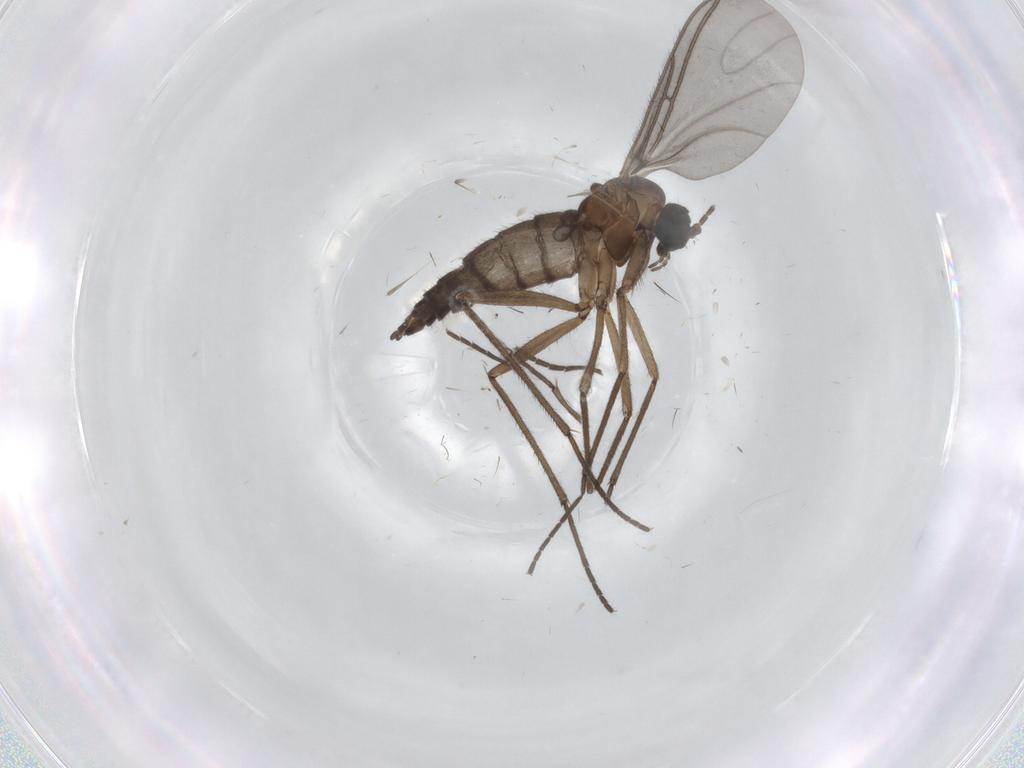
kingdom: Animalia
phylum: Arthropoda
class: Insecta
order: Diptera
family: Sciaridae
